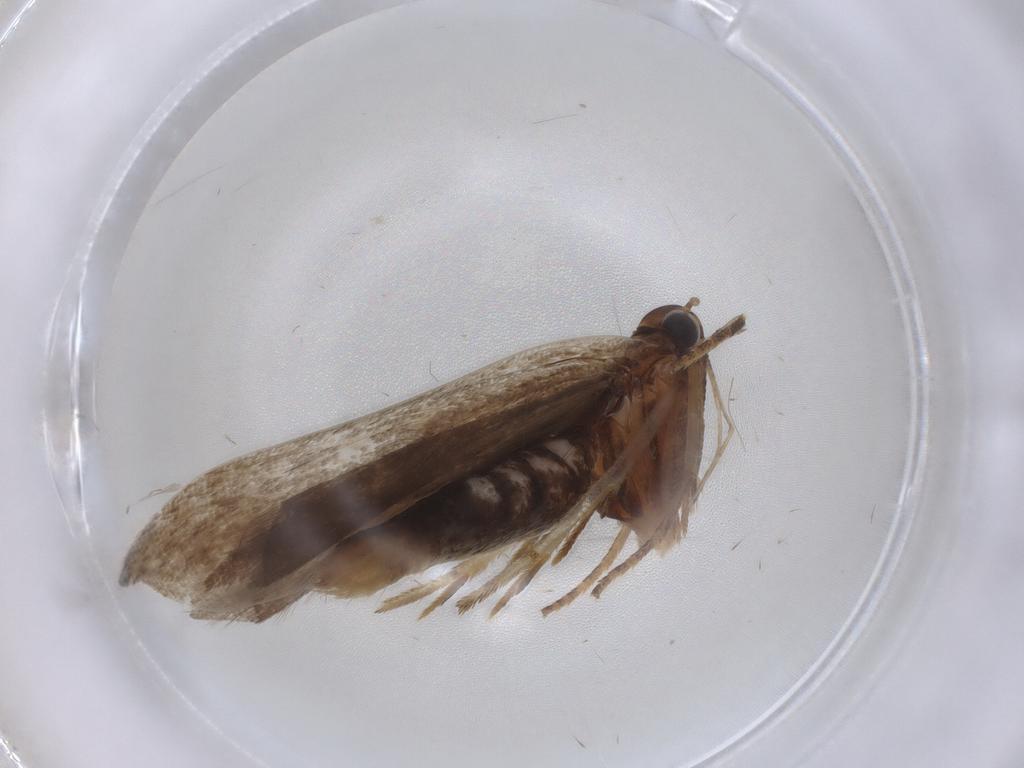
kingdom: Animalia
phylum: Arthropoda
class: Insecta
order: Lepidoptera
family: Gelechiidae
